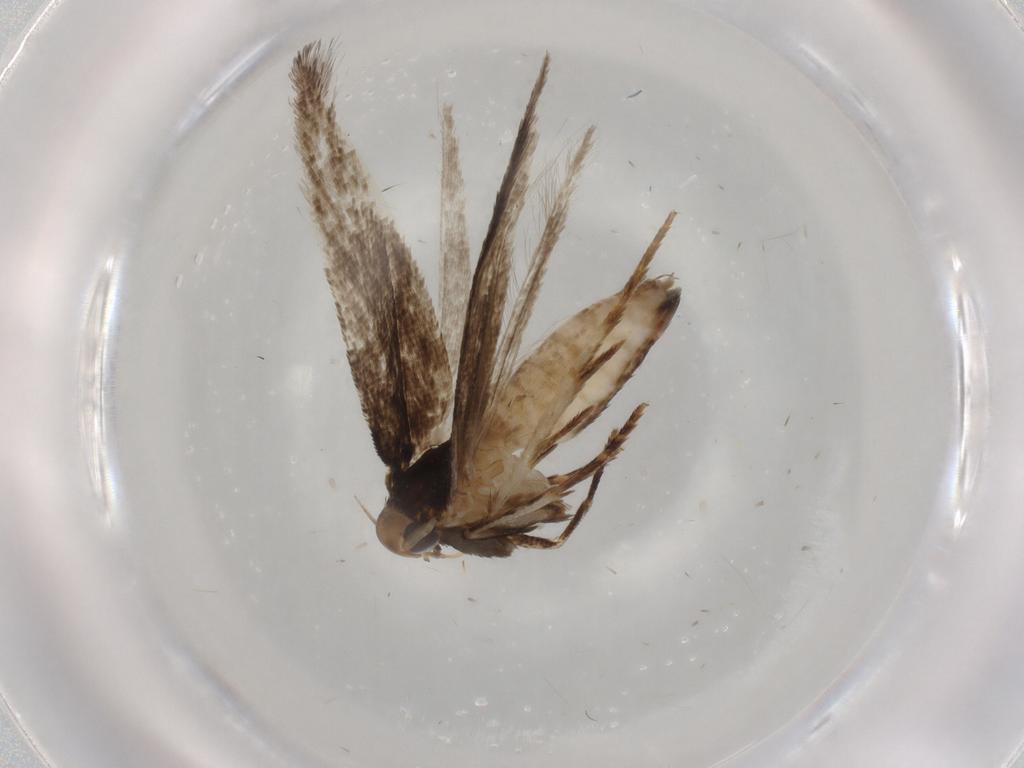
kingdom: Animalia
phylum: Arthropoda
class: Insecta
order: Lepidoptera
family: Cosmopterigidae
